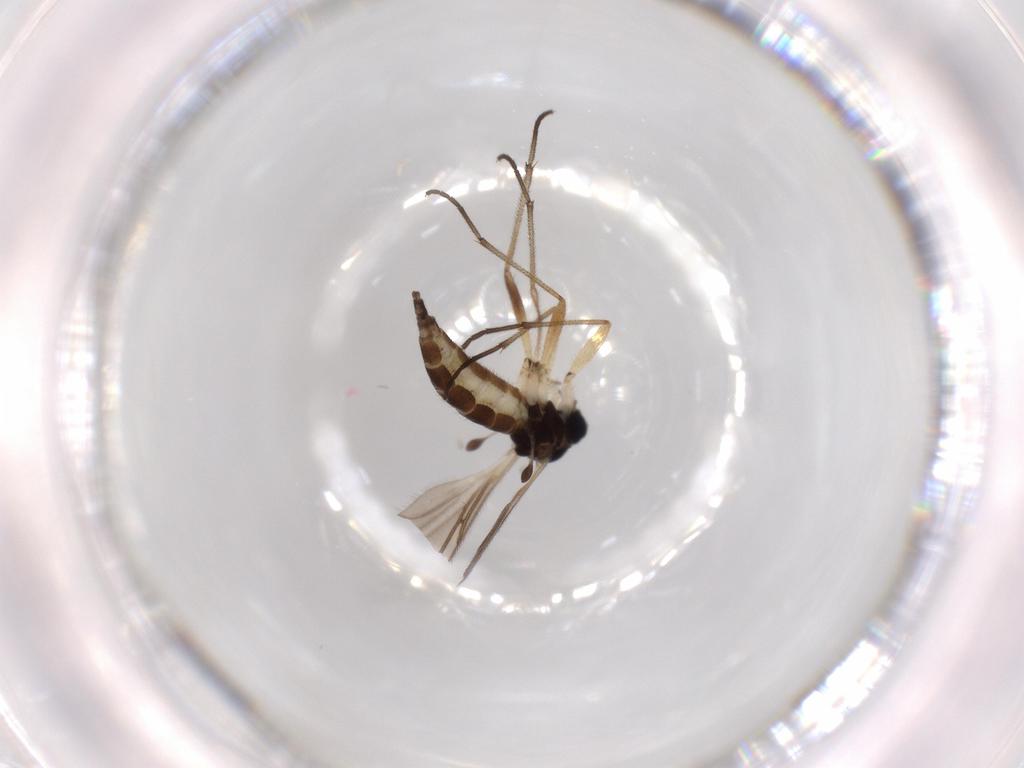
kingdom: Animalia
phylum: Arthropoda
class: Insecta
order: Diptera
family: Sciaridae
